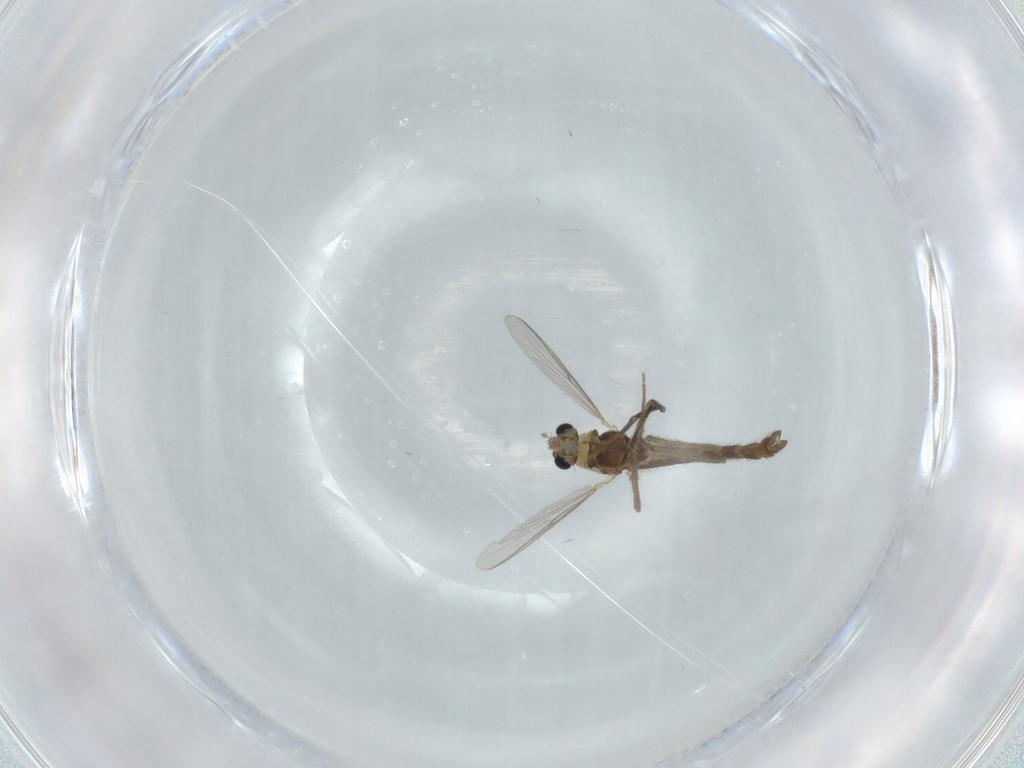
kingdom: Animalia
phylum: Arthropoda
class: Insecta
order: Diptera
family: Chironomidae
